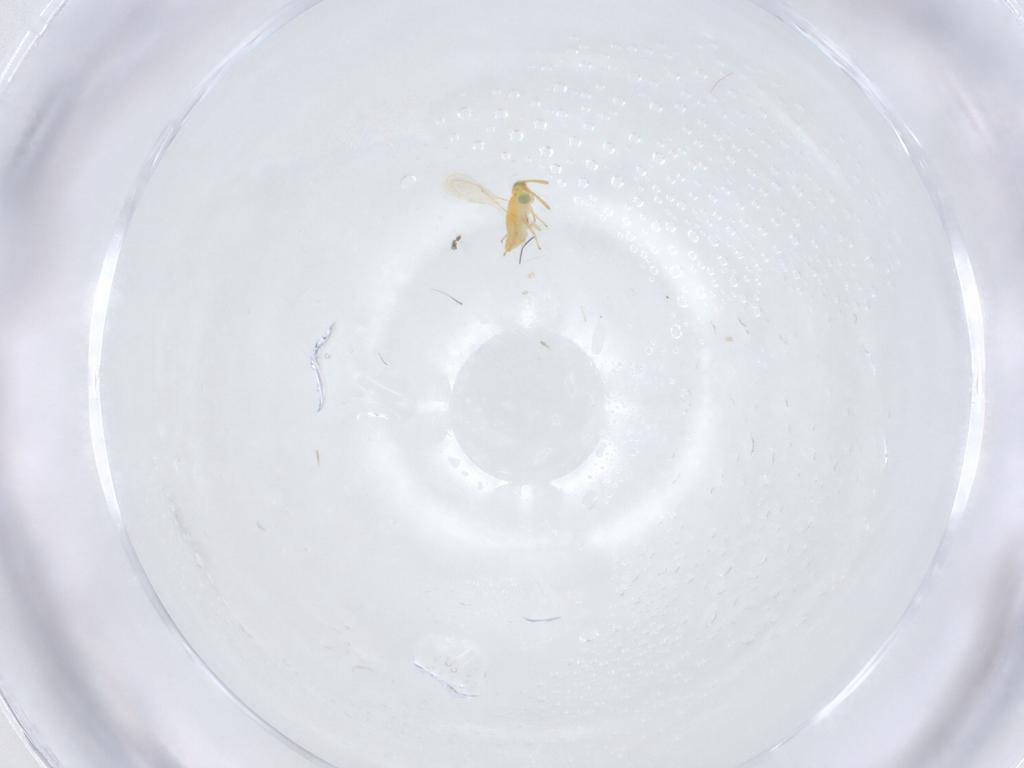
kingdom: Animalia
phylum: Arthropoda
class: Insecta
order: Hymenoptera
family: Aphelinidae
